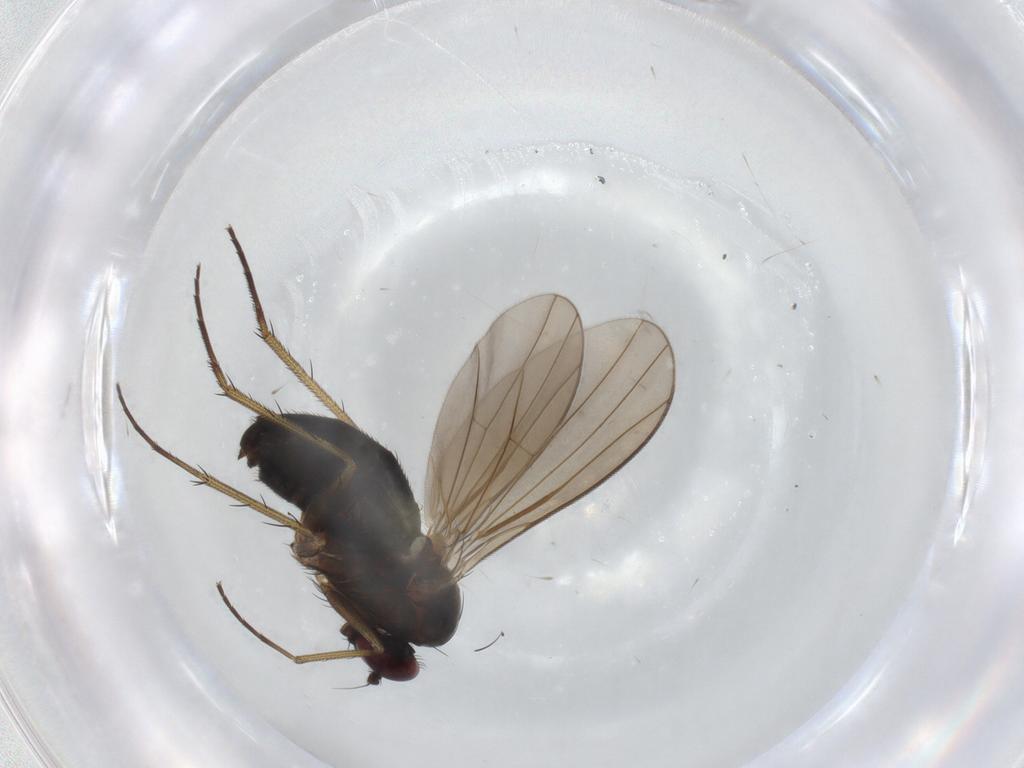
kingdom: Animalia
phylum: Arthropoda
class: Insecta
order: Diptera
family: Dolichopodidae
